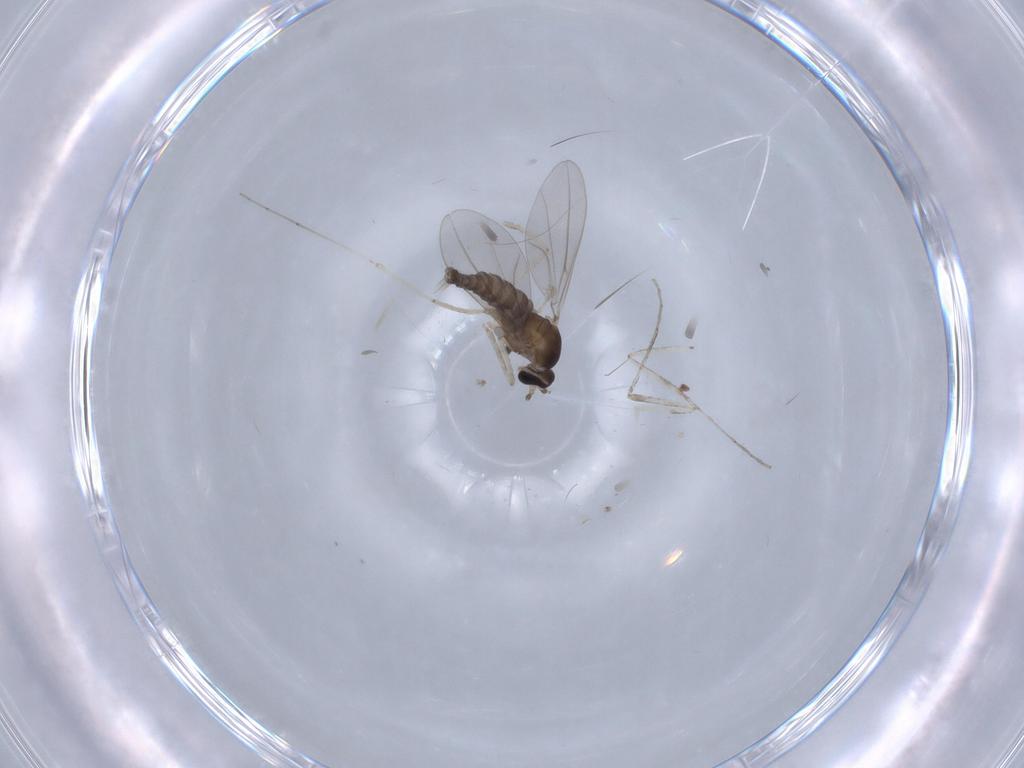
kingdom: Animalia
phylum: Arthropoda
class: Insecta
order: Diptera
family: Cecidomyiidae
